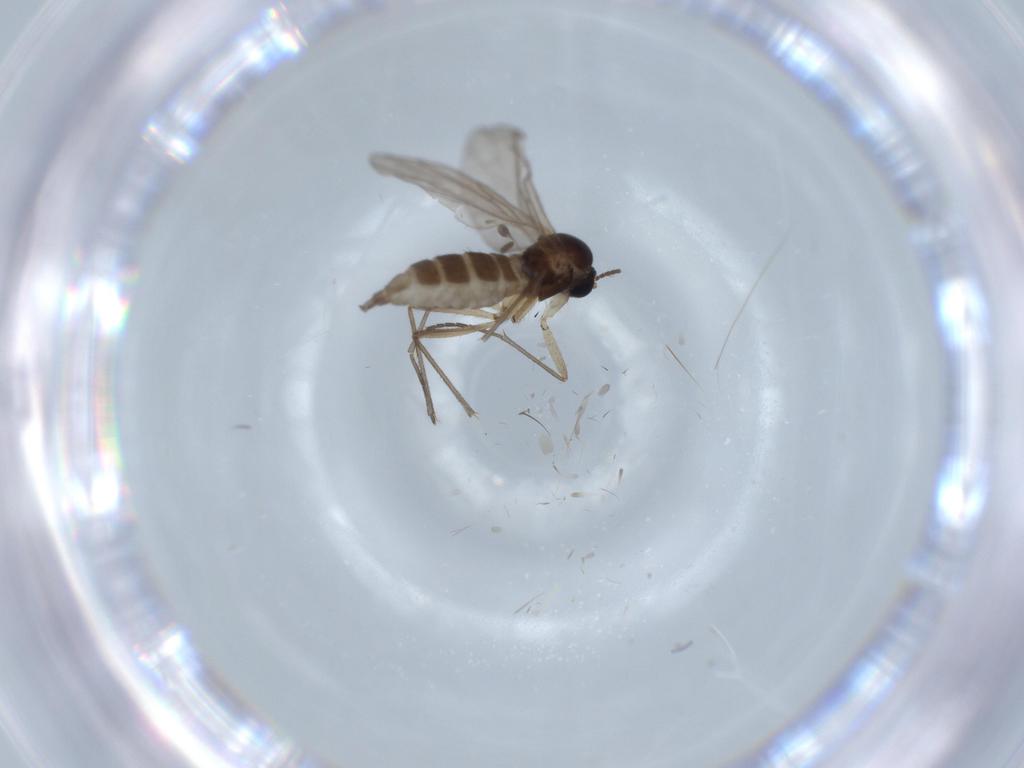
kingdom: Animalia
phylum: Arthropoda
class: Insecta
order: Diptera
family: Sciaridae
